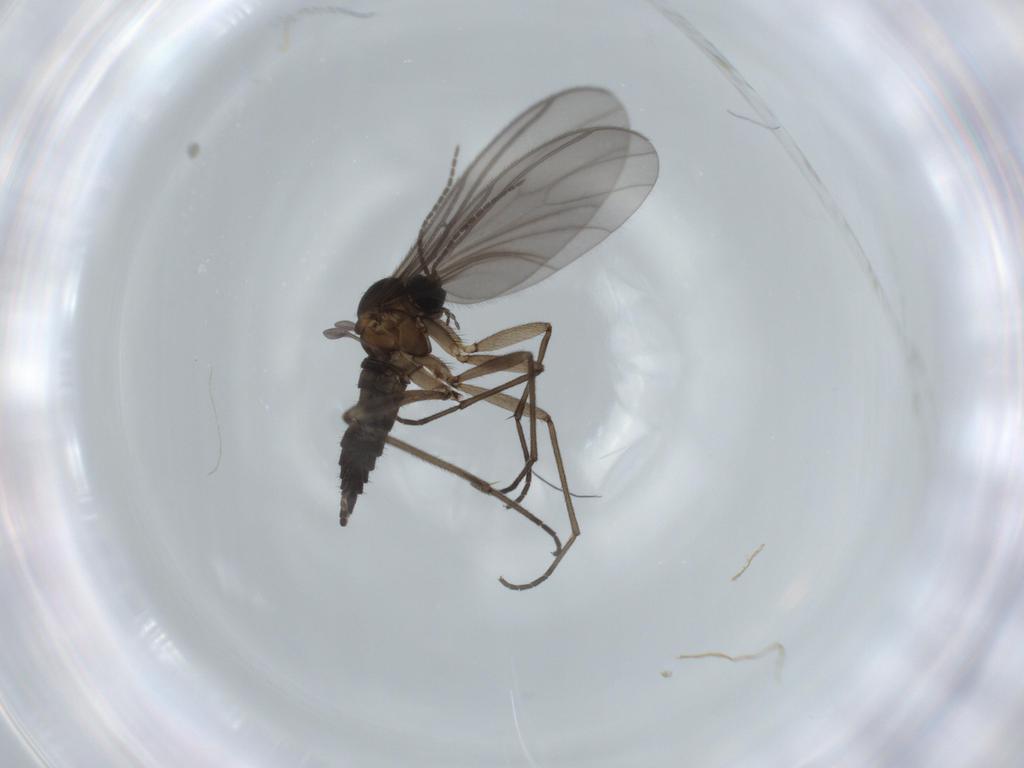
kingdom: Animalia
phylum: Arthropoda
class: Insecta
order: Diptera
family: Sciaridae
